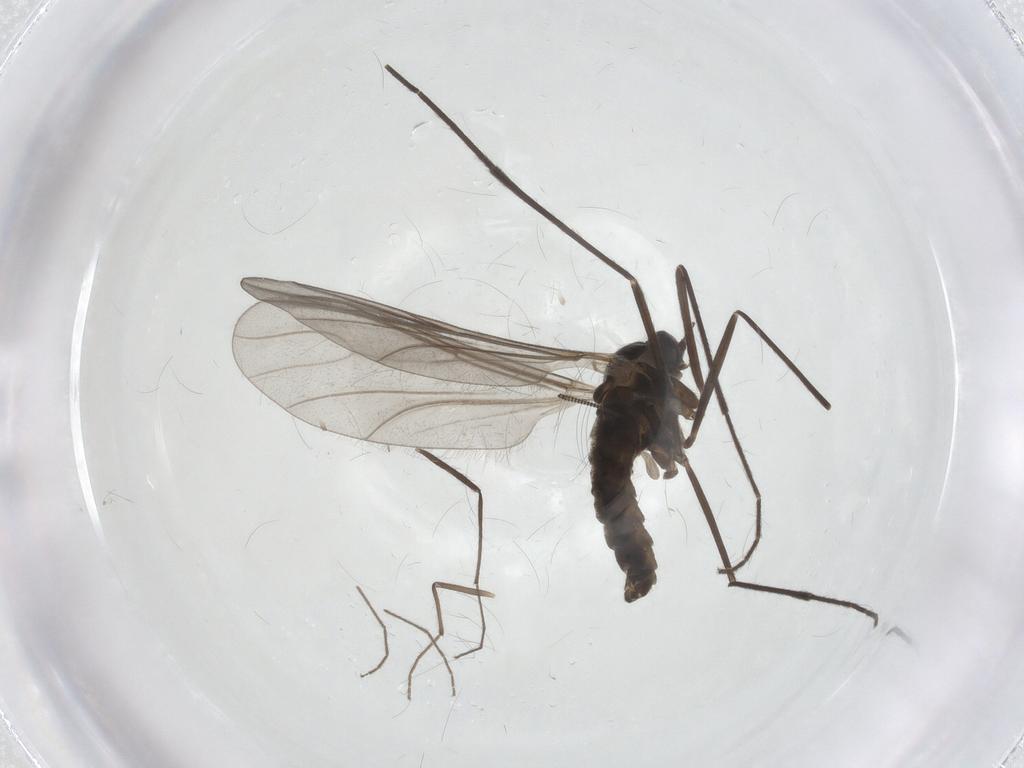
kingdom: Animalia
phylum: Arthropoda
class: Insecta
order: Diptera
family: Cecidomyiidae
